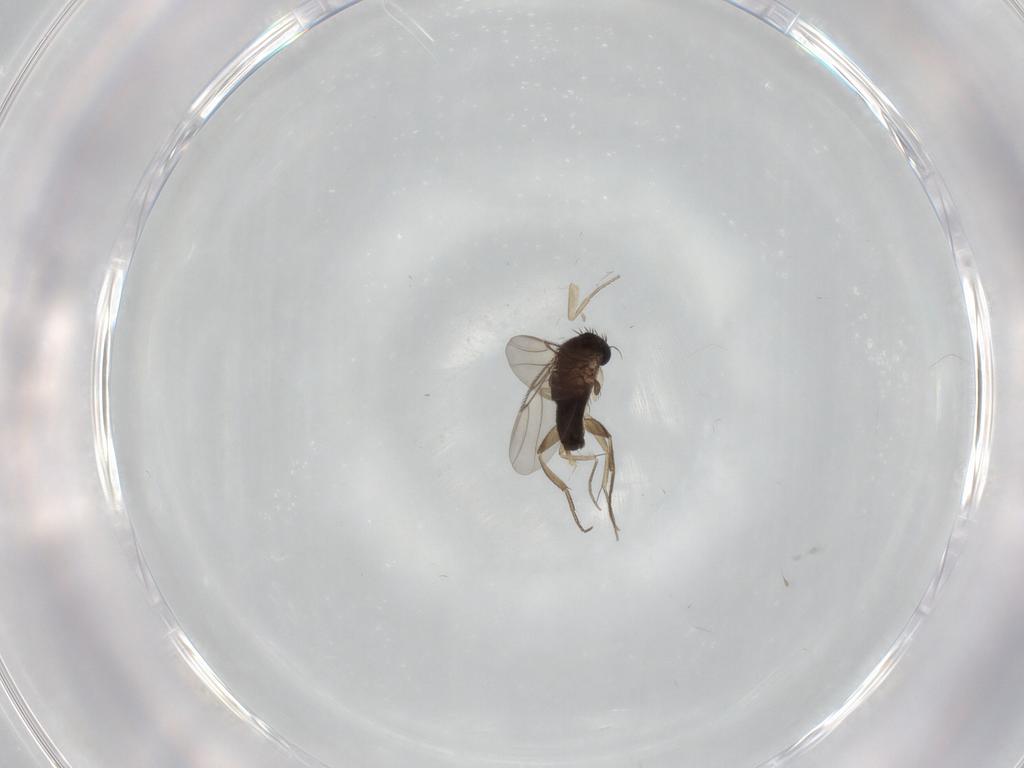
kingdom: Animalia
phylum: Arthropoda
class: Insecta
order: Diptera
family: Phoridae
